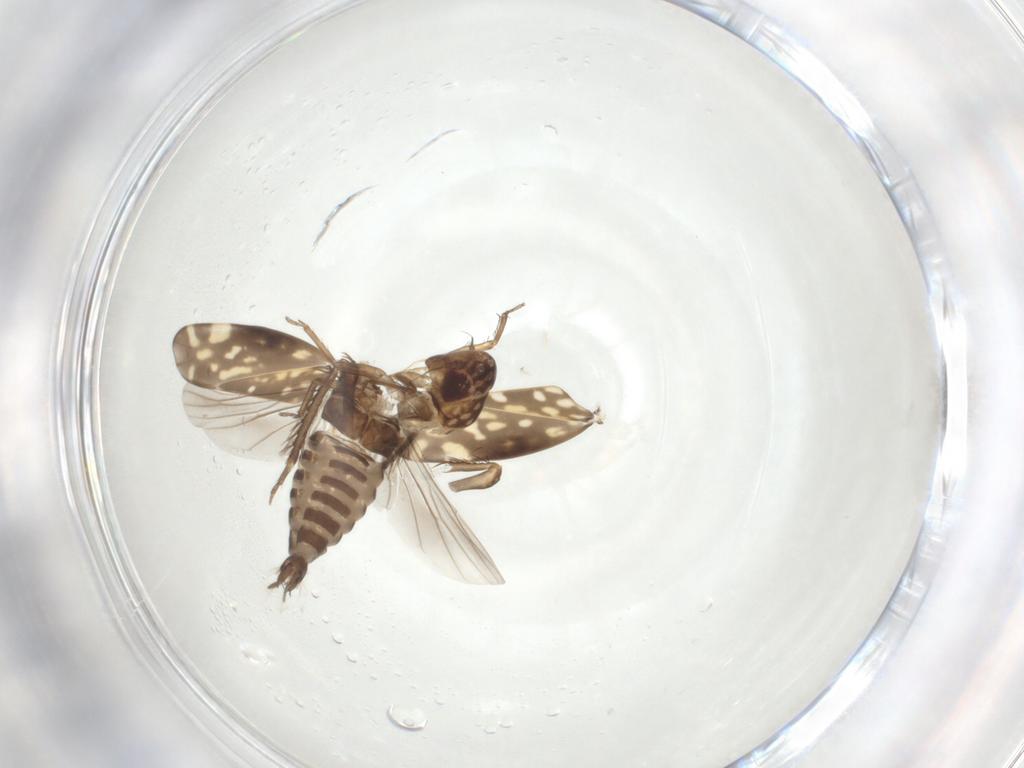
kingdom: Animalia
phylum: Arthropoda
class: Insecta
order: Hemiptera
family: Cicadellidae
